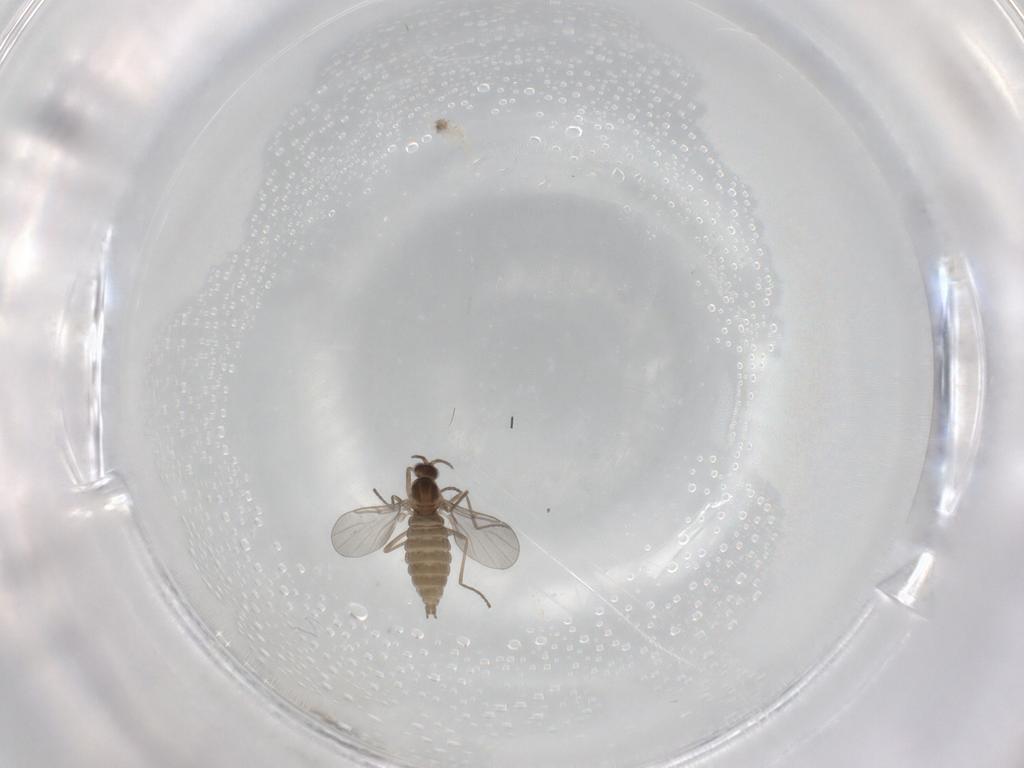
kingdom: Animalia
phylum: Arthropoda
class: Insecta
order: Diptera
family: Cecidomyiidae
